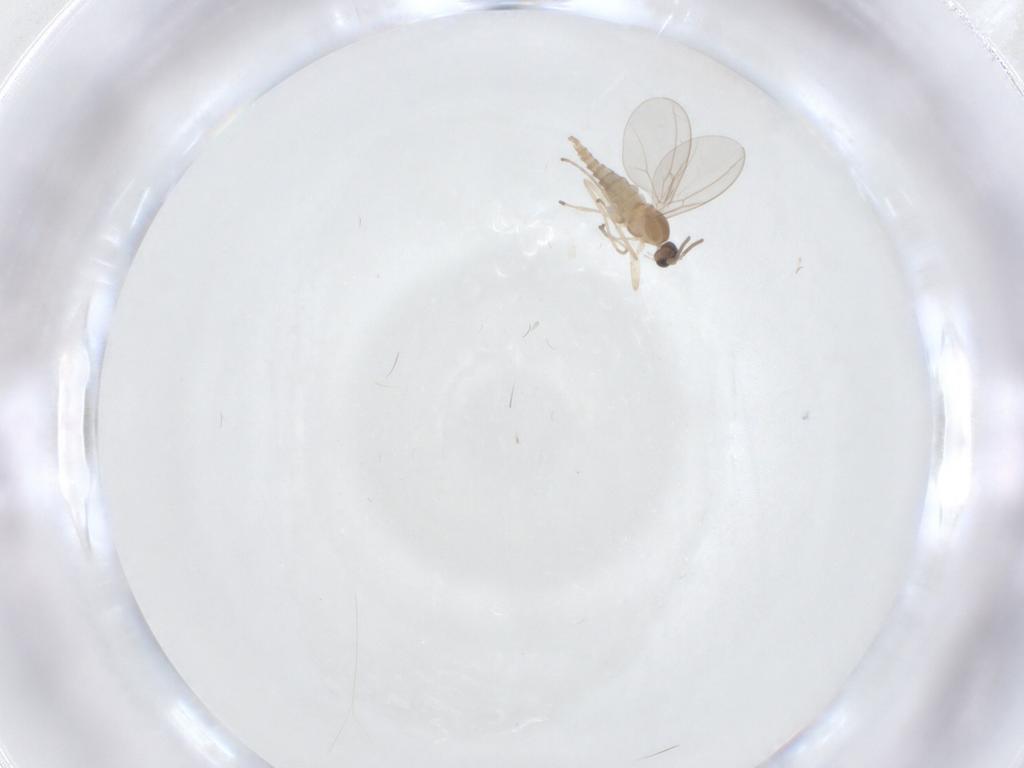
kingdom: Animalia
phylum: Arthropoda
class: Insecta
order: Diptera
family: Cecidomyiidae
